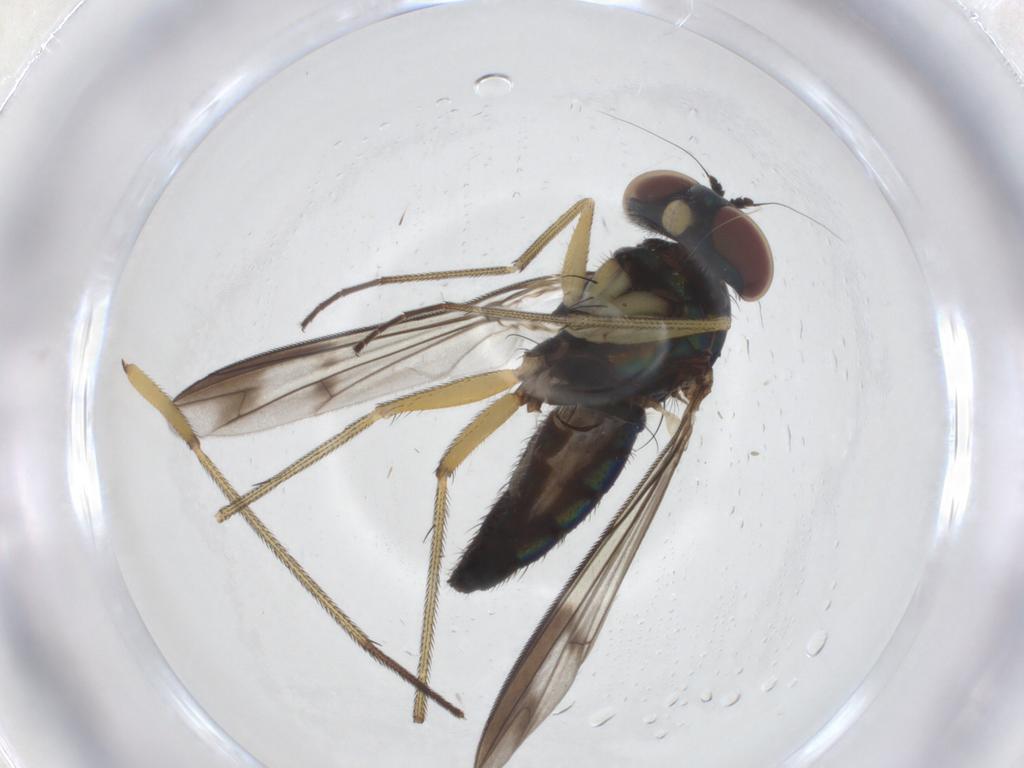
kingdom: Animalia
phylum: Arthropoda
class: Insecta
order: Diptera
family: Dolichopodidae
